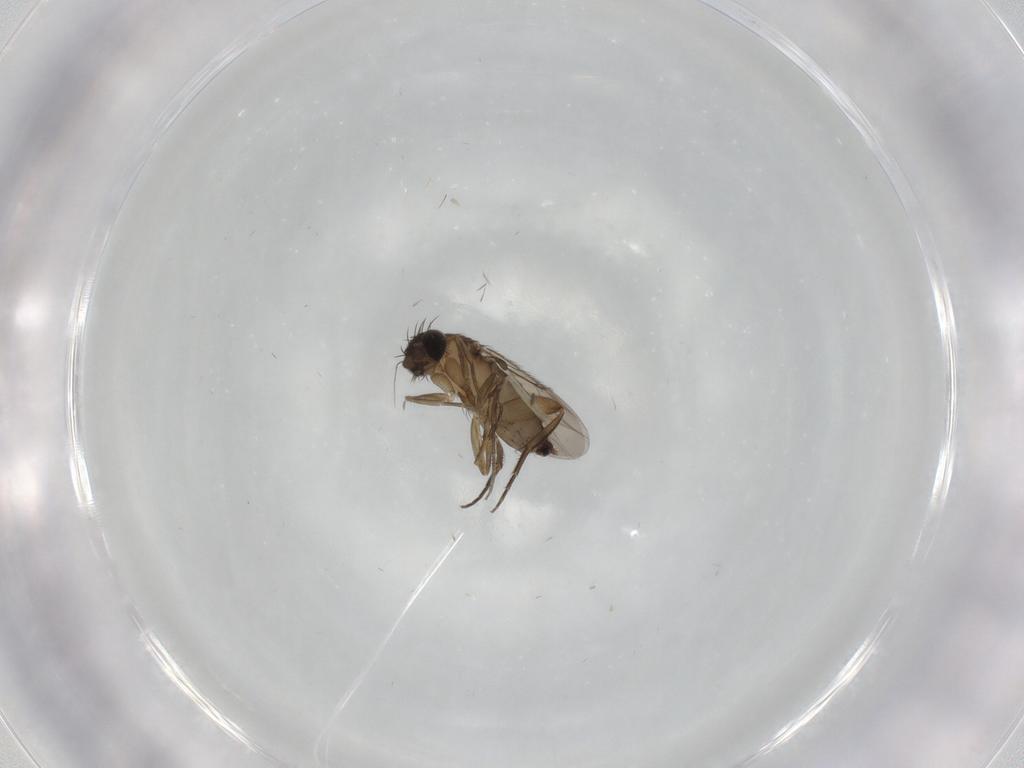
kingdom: Animalia
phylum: Arthropoda
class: Insecta
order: Diptera
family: Phoridae
